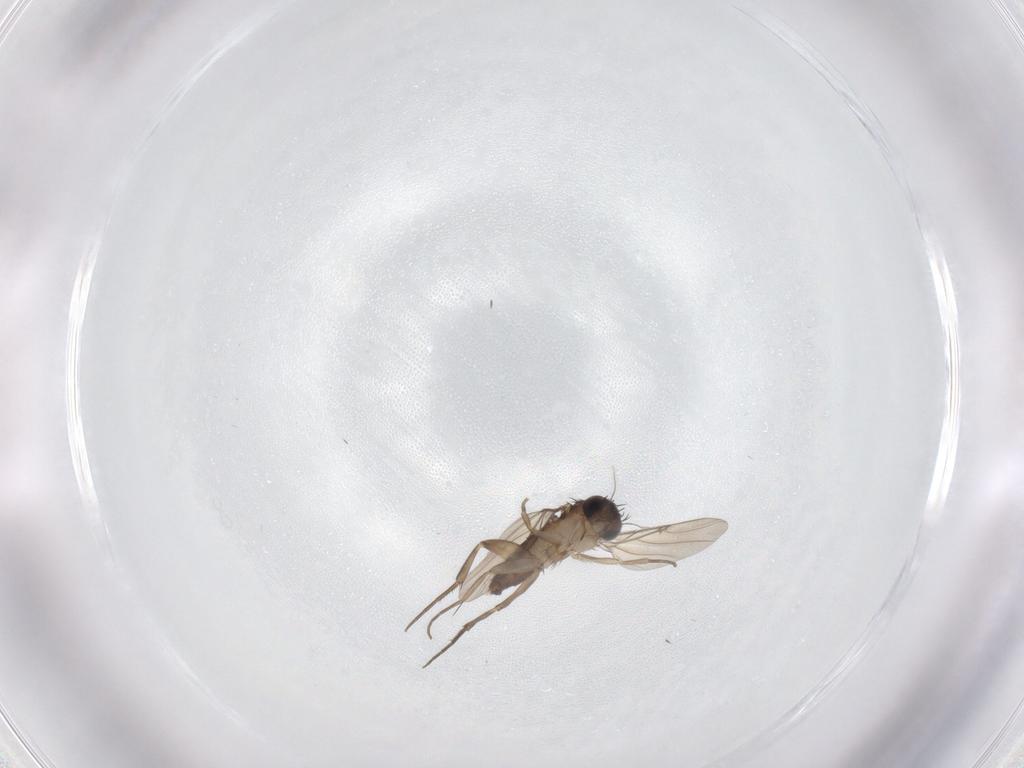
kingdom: Animalia
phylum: Arthropoda
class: Insecta
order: Diptera
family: Phoridae
